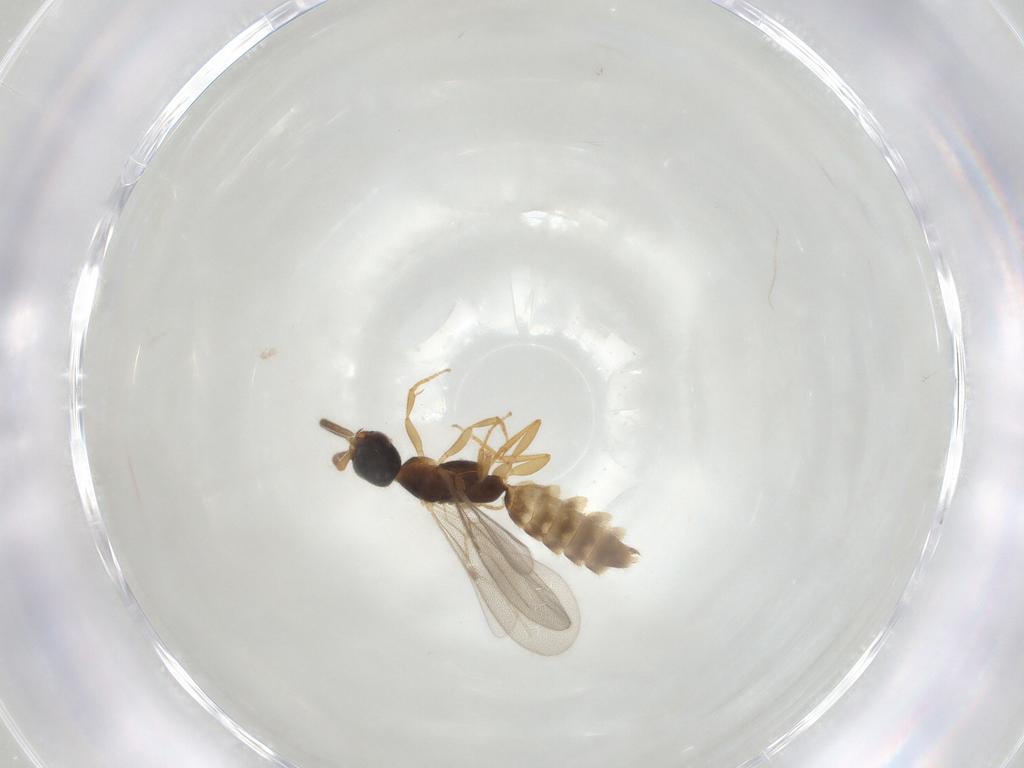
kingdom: Animalia
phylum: Arthropoda
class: Insecta
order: Hymenoptera
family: Bethylidae
